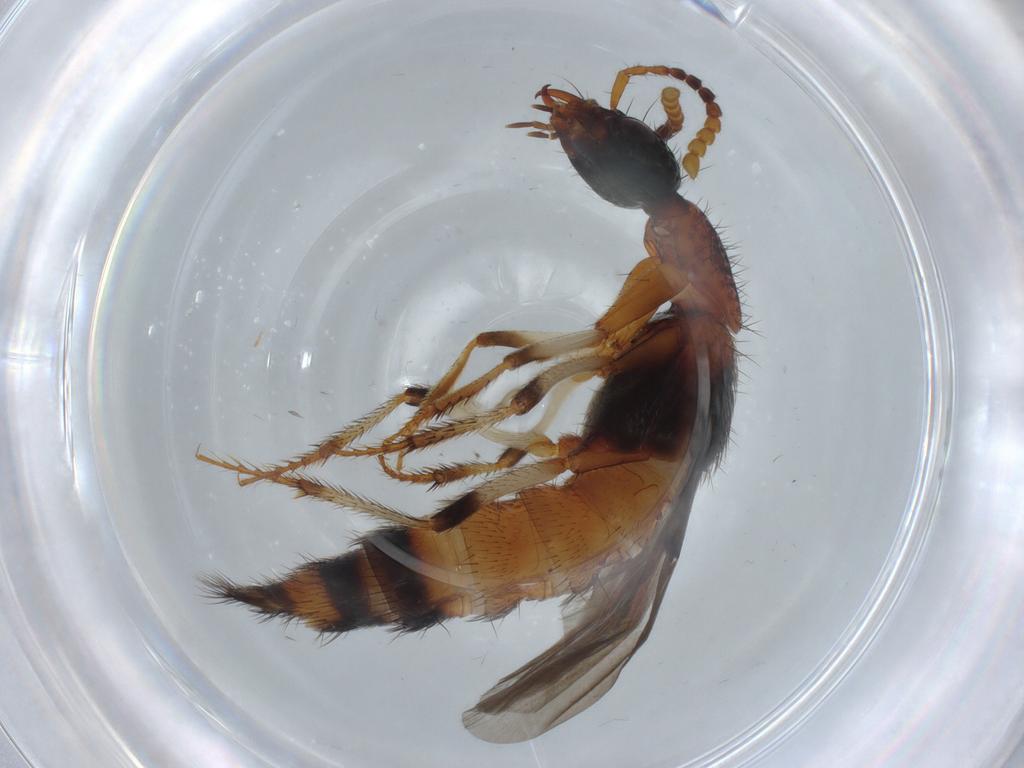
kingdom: Animalia
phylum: Arthropoda
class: Insecta
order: Coleoptera
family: Staphylinidae
